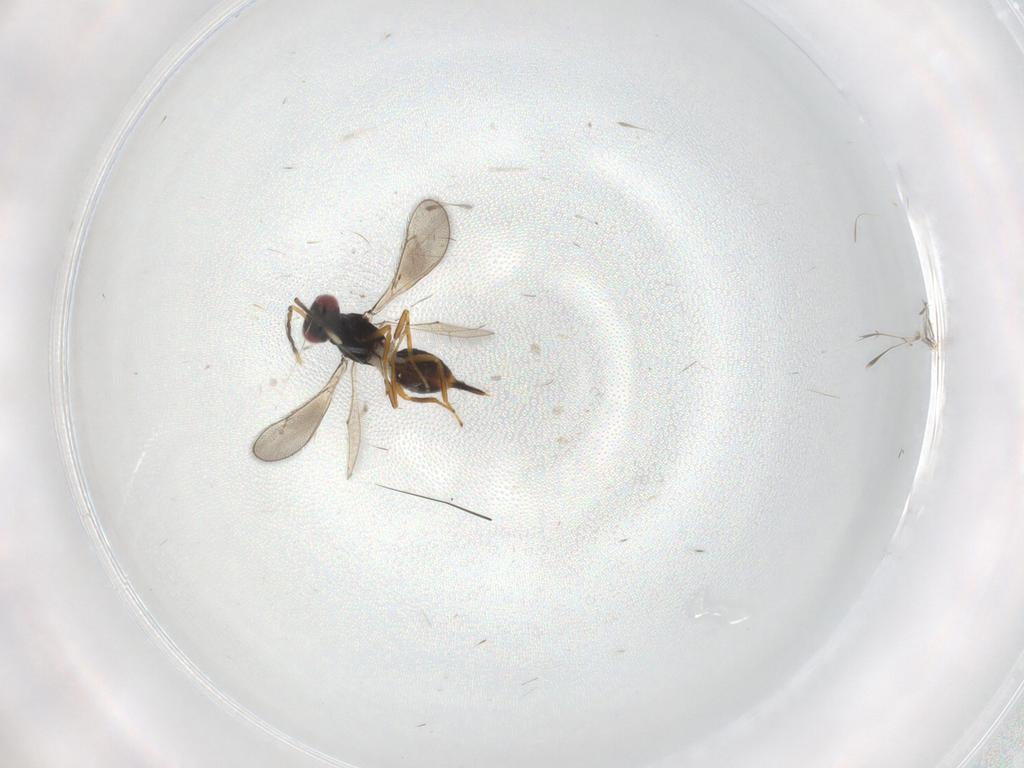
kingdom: Animalia
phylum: Arthropoda
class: Insecta
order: Hymenoptera
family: Eulophidae
